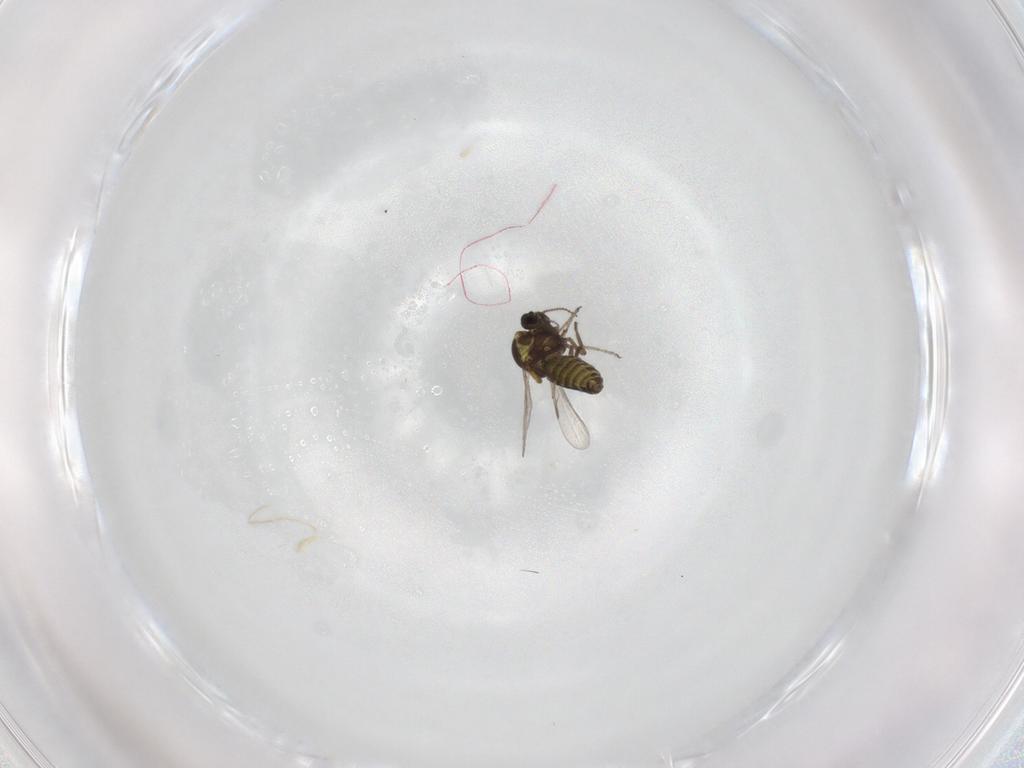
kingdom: Animalia
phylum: Arthropoda
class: Insecta
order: Diptera
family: Ceratopogonidae
